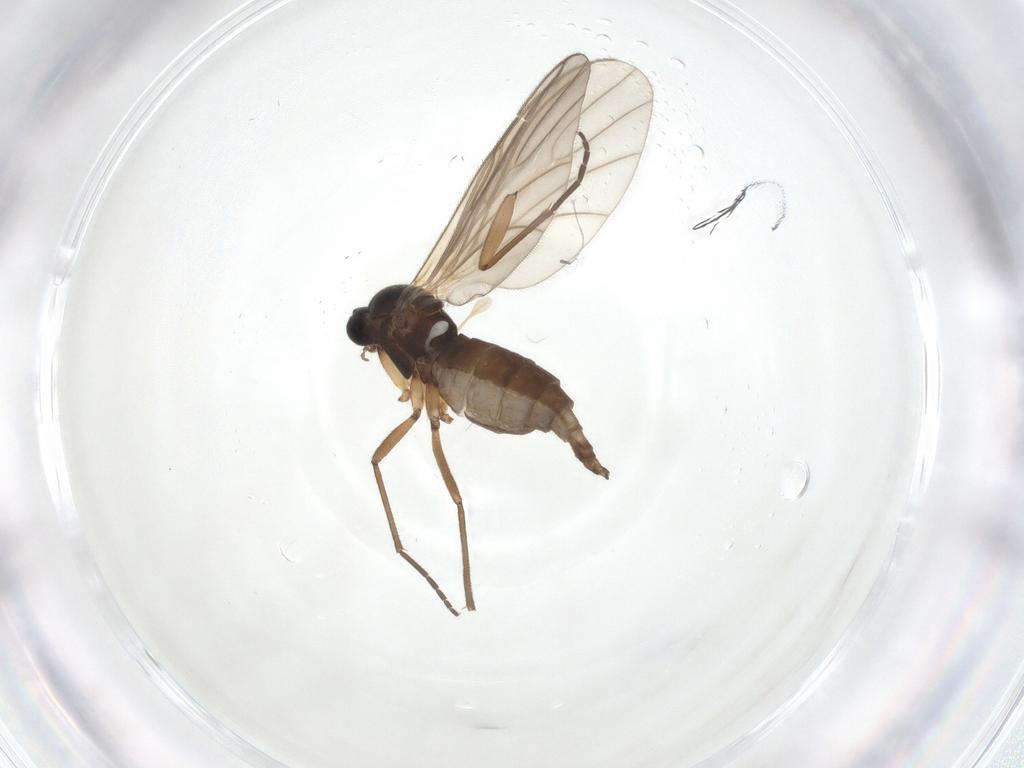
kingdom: Animalia
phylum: Arthropoda
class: Insecta
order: Diptera
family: Sciaridae
